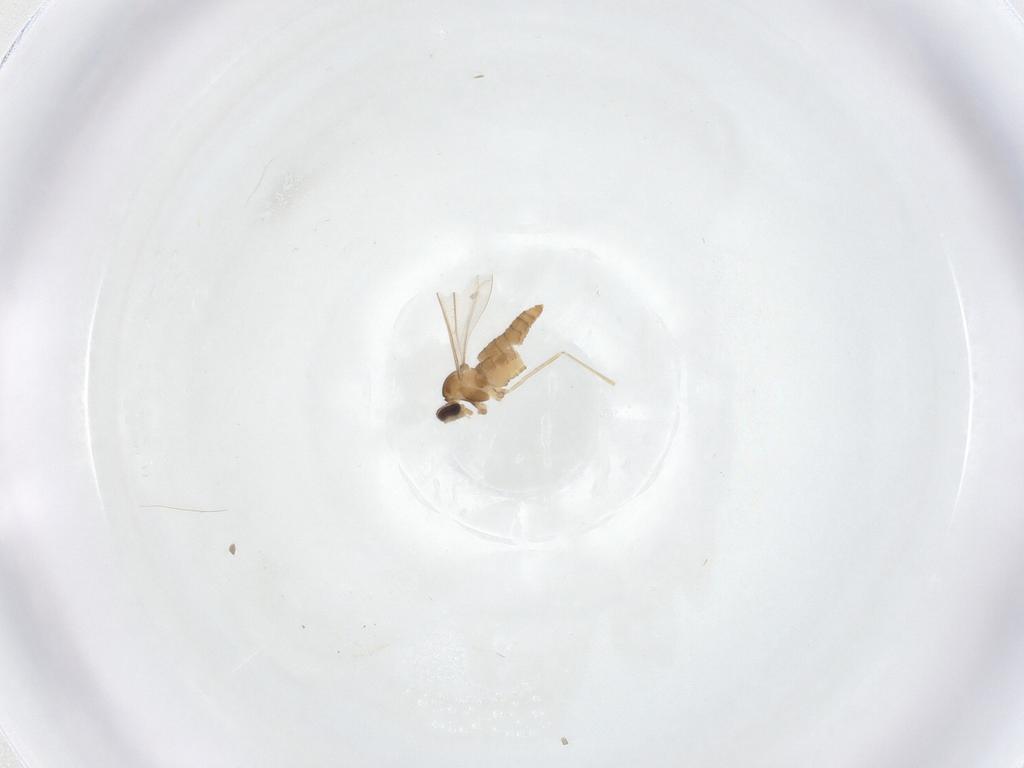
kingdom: Animalia
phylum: Arthropoda
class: Insecta
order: Diptera
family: Cecidomyiidae
